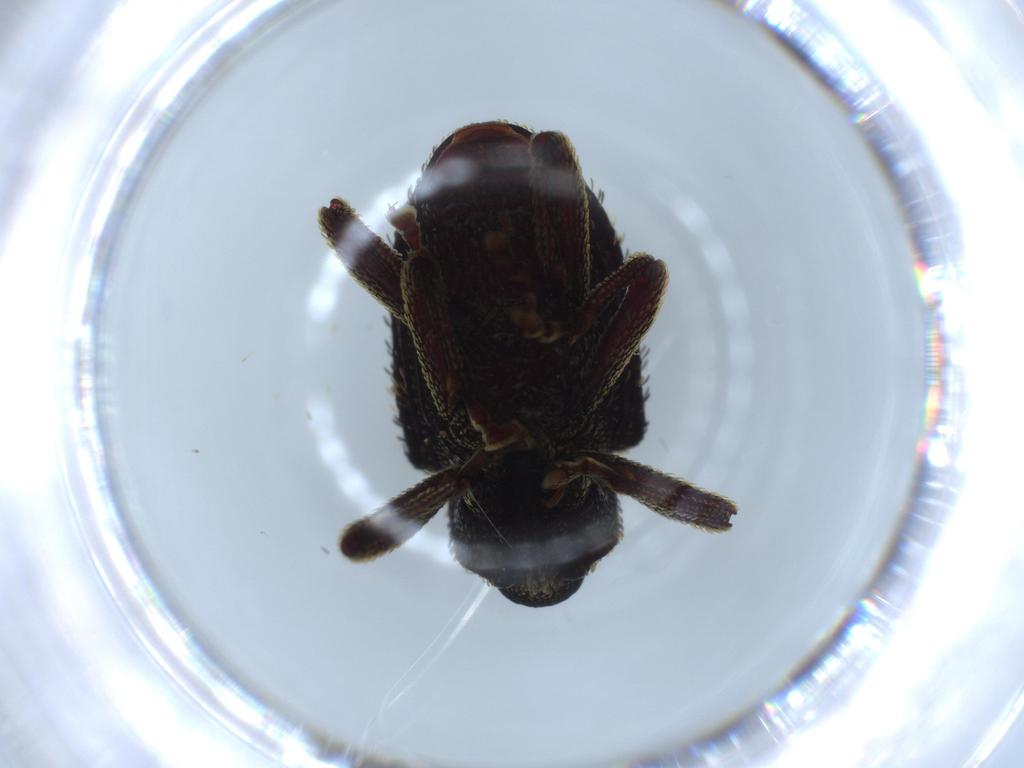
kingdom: Animalia
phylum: Arthropoda
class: Insecta
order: Coleoptera
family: Curculionidae
